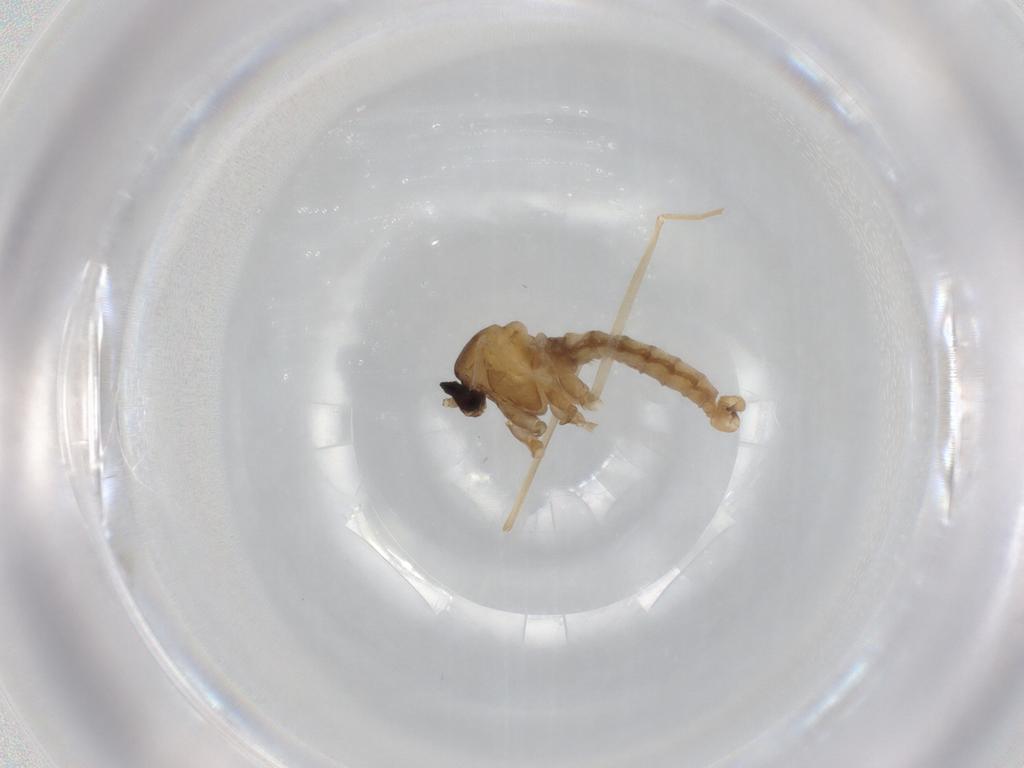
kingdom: Animalia
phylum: Arthropoda
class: Insecta
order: Diptera
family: Cecidomyiidae
